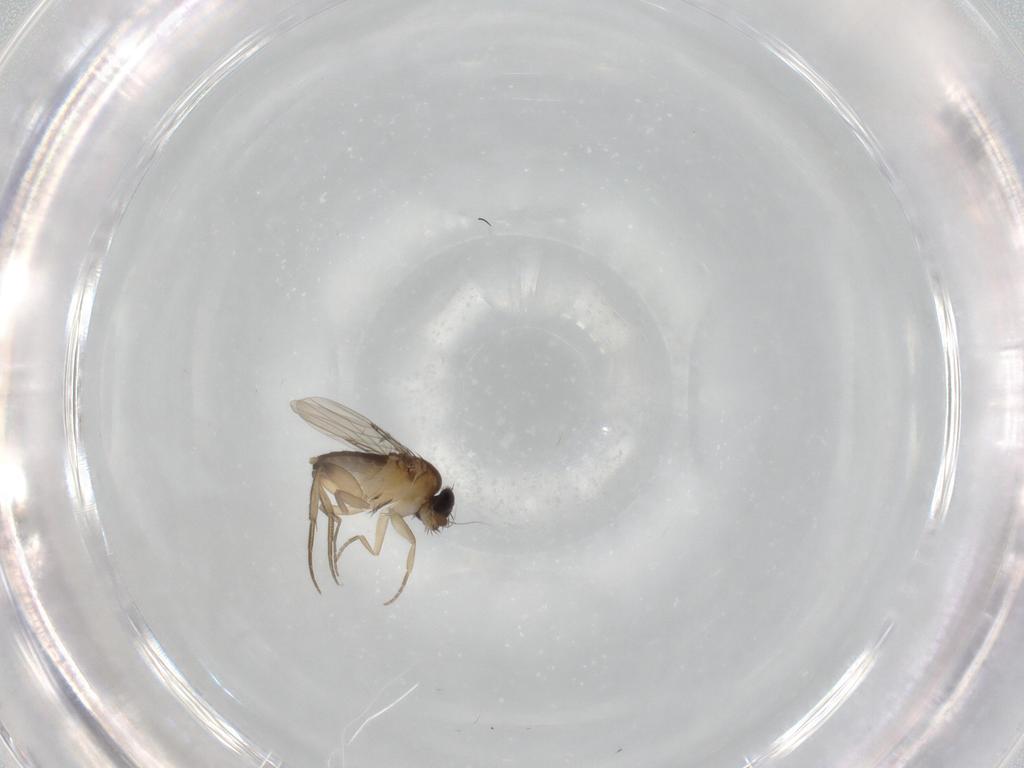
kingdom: Animalia
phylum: Arthropoda
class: Insecta
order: Diptera
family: Ceratopogonidae
